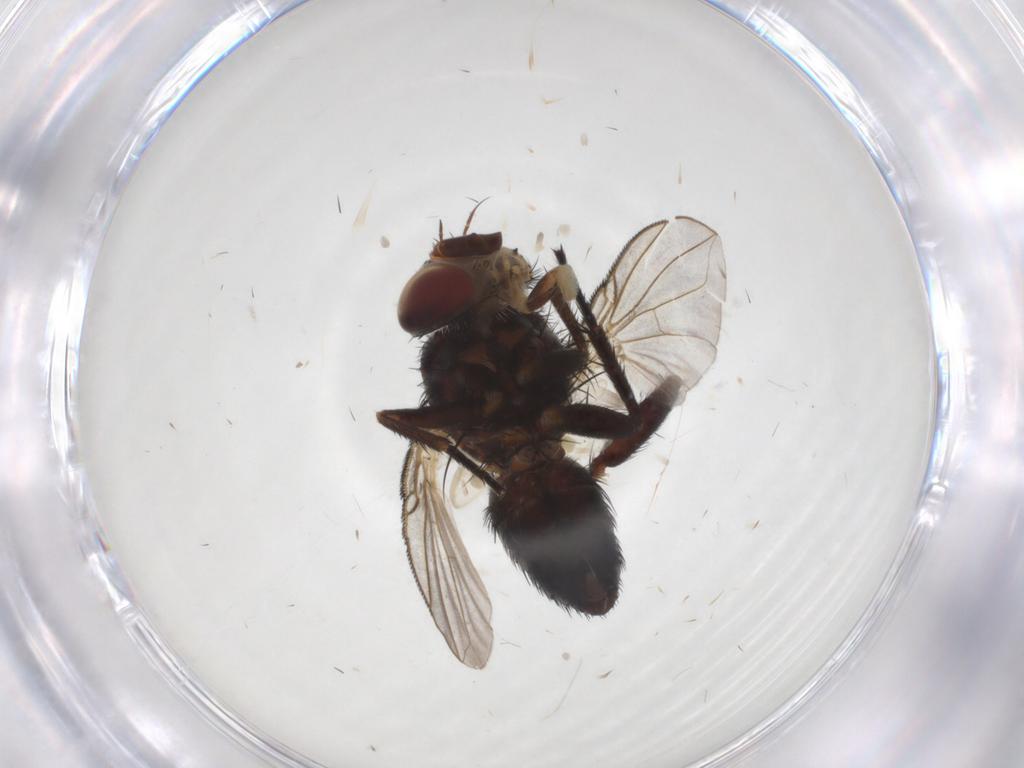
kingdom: Animalia
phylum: Arthropoda
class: Insecta
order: Diptera
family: Tachinidae
